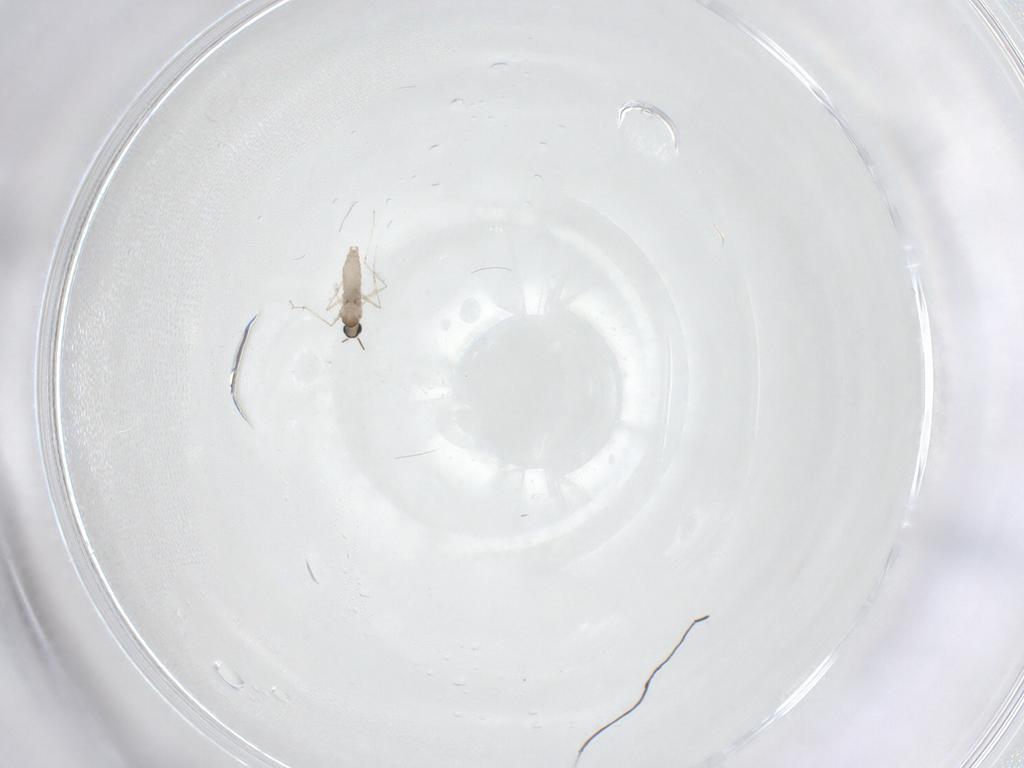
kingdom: Animalia
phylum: Arthropoda
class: Insecta
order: Diptera
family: Cecidomyiidae
